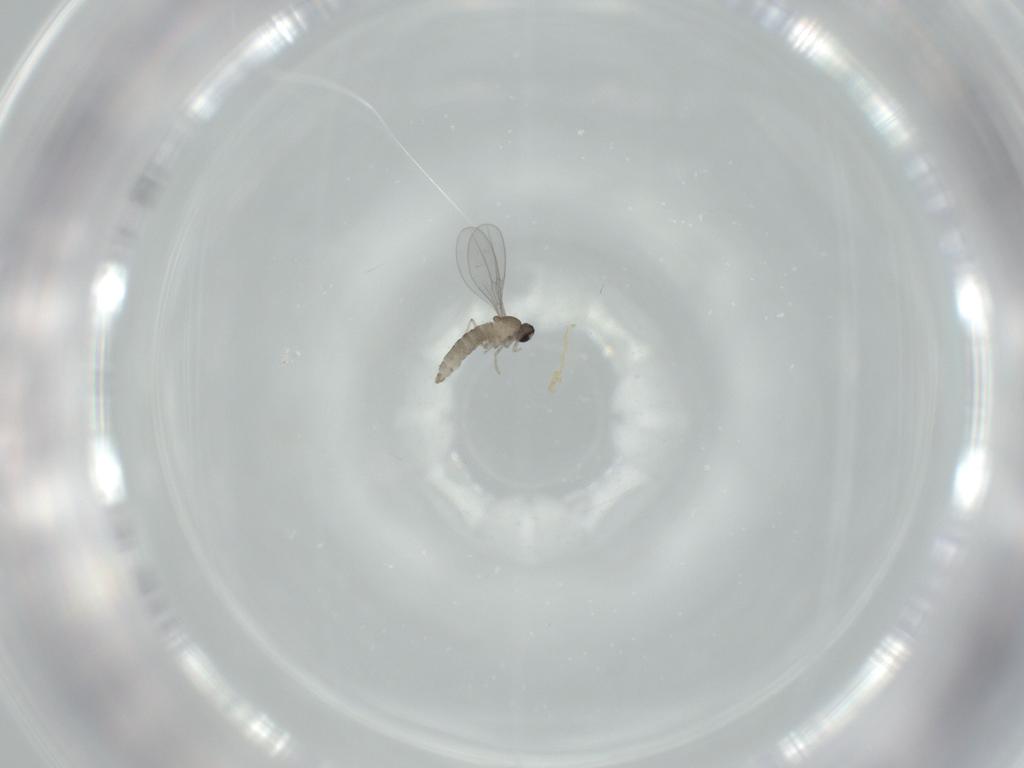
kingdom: Animalia
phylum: Arthropoda
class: Insecta
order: Diptera
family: Cecidomyiidae
